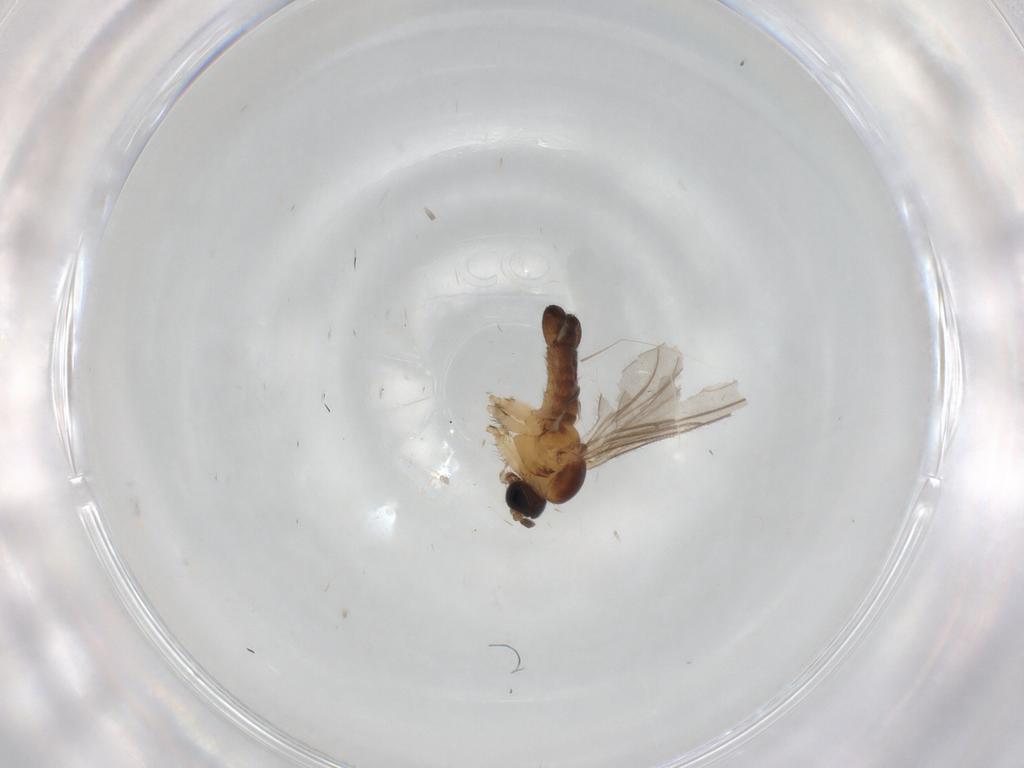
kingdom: Animalia
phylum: Arthropoda
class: Insecta
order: Diptera
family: Sciaridae
